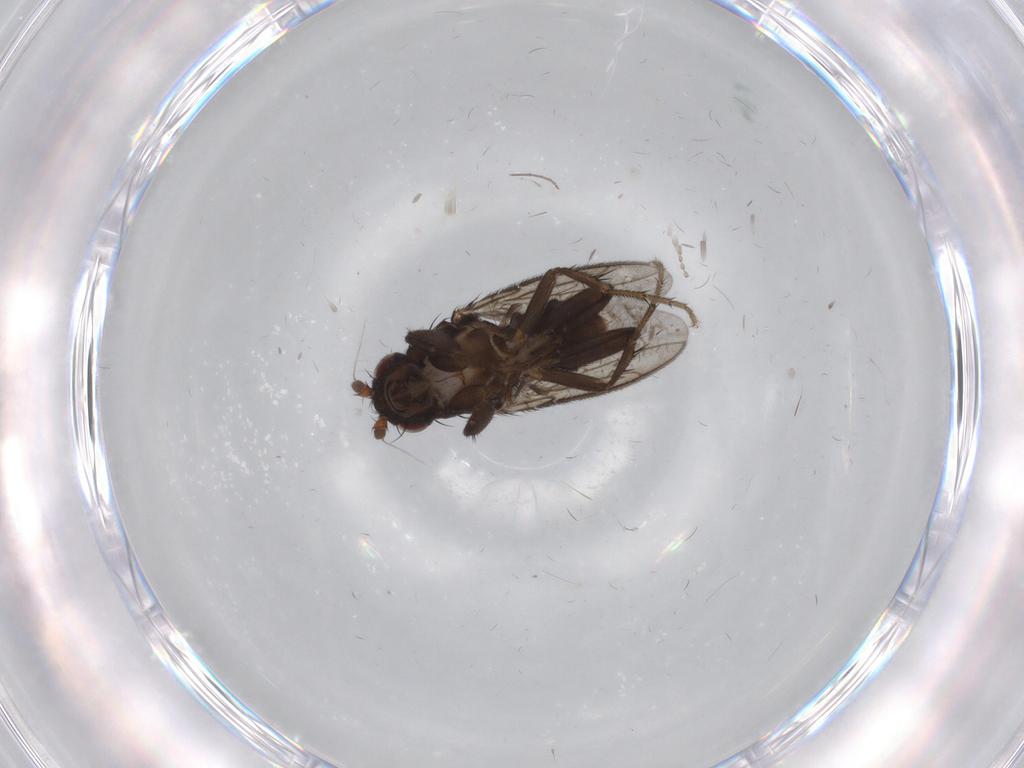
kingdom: Animalia
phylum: Arthropoda
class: Insecta
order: Diptera
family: Sphaeroceridae
